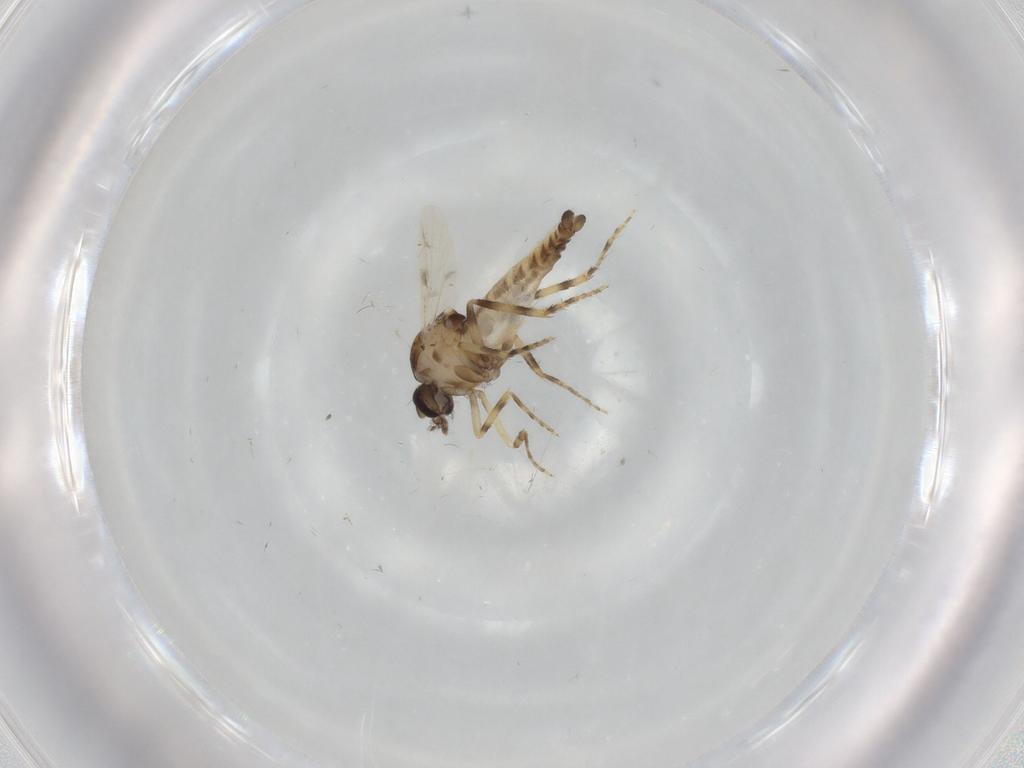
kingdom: Animalia
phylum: Arthropoda
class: Insecta
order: Diptera
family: Ceratopogonidae
